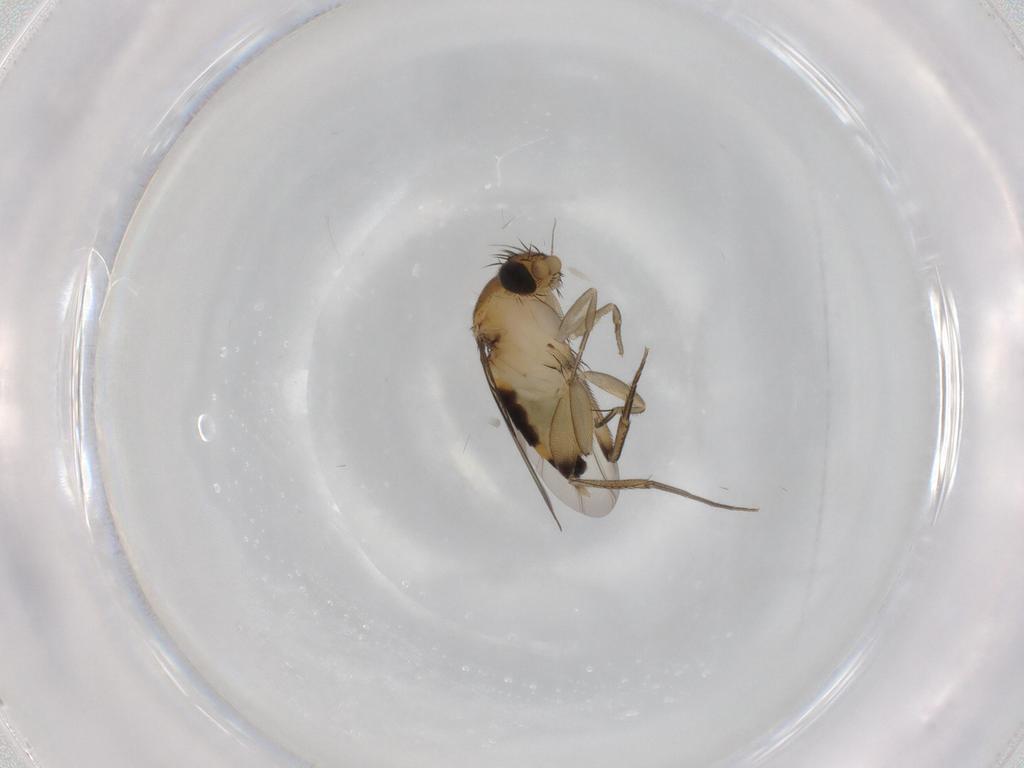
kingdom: Animalia
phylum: Arthropoda
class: Insecta
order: Diptera
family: Phoridae
